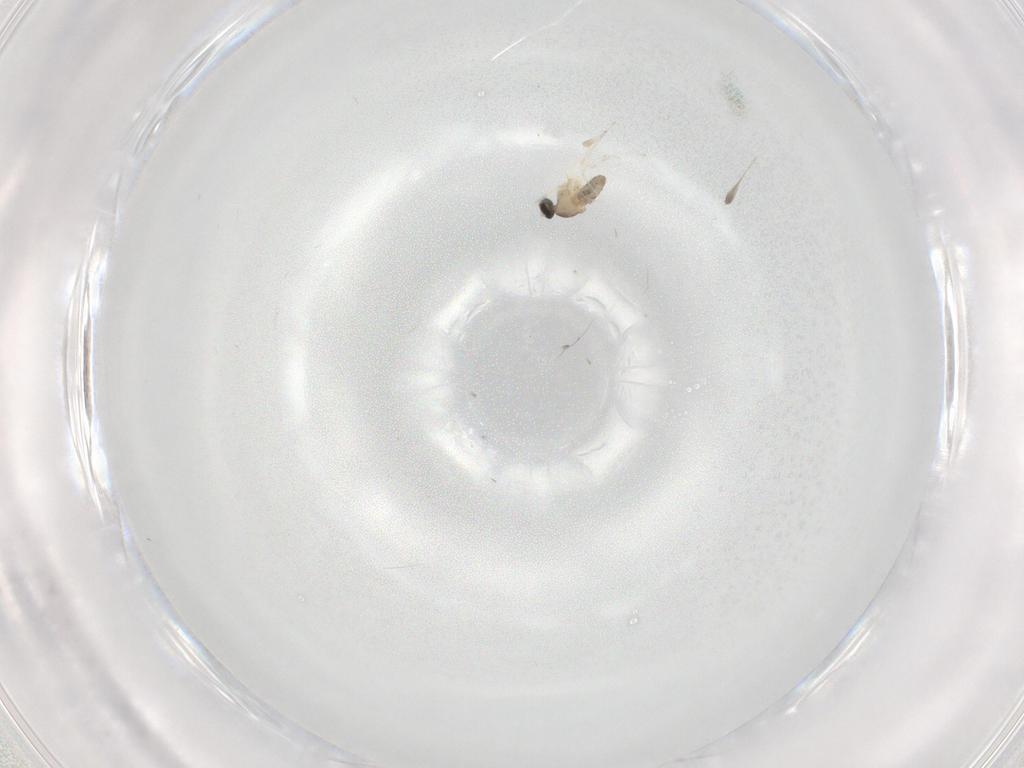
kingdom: Animalia
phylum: Arthropoda
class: Insecta
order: Diptera
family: Cecidomyiidae
